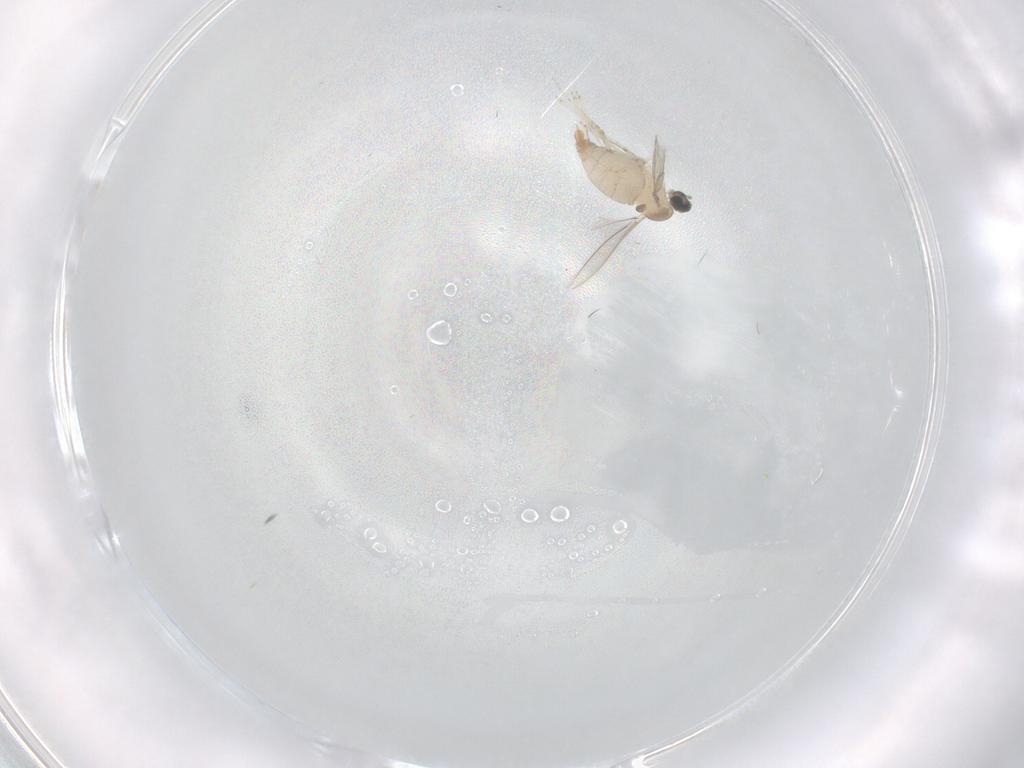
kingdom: Animalia
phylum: Arthropoda
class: Insecta
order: Diptera
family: Cecidomyiidae
